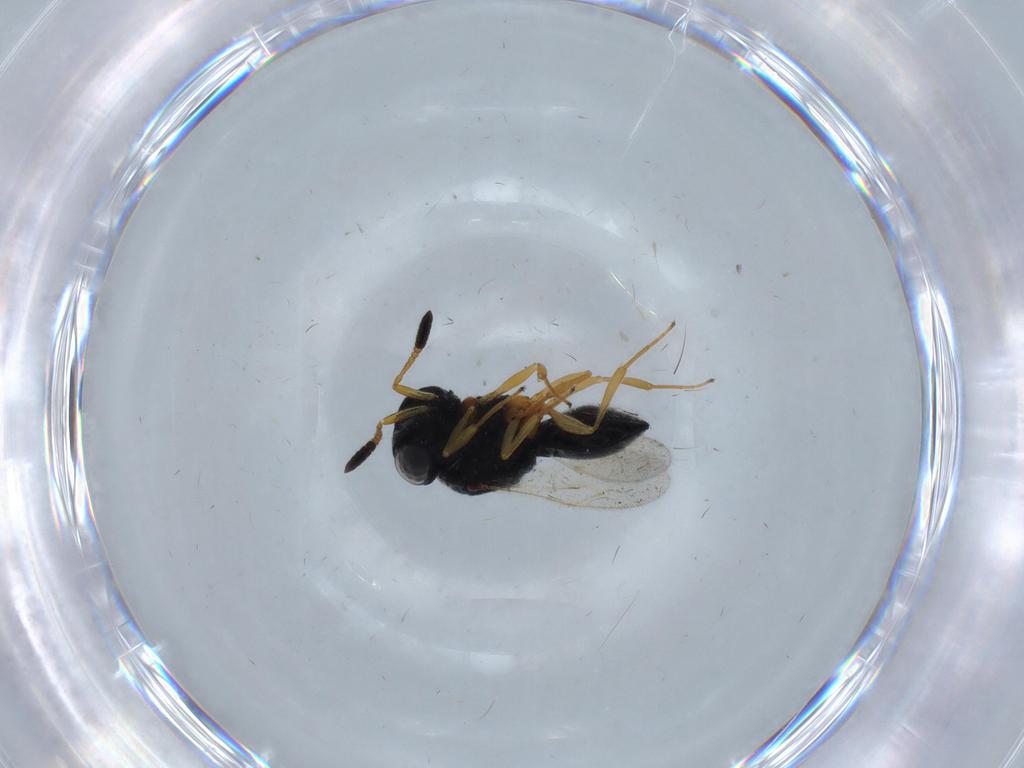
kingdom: Animalia
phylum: Arthropoda
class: Insecta
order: Hymenoptera
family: Scelionidae
